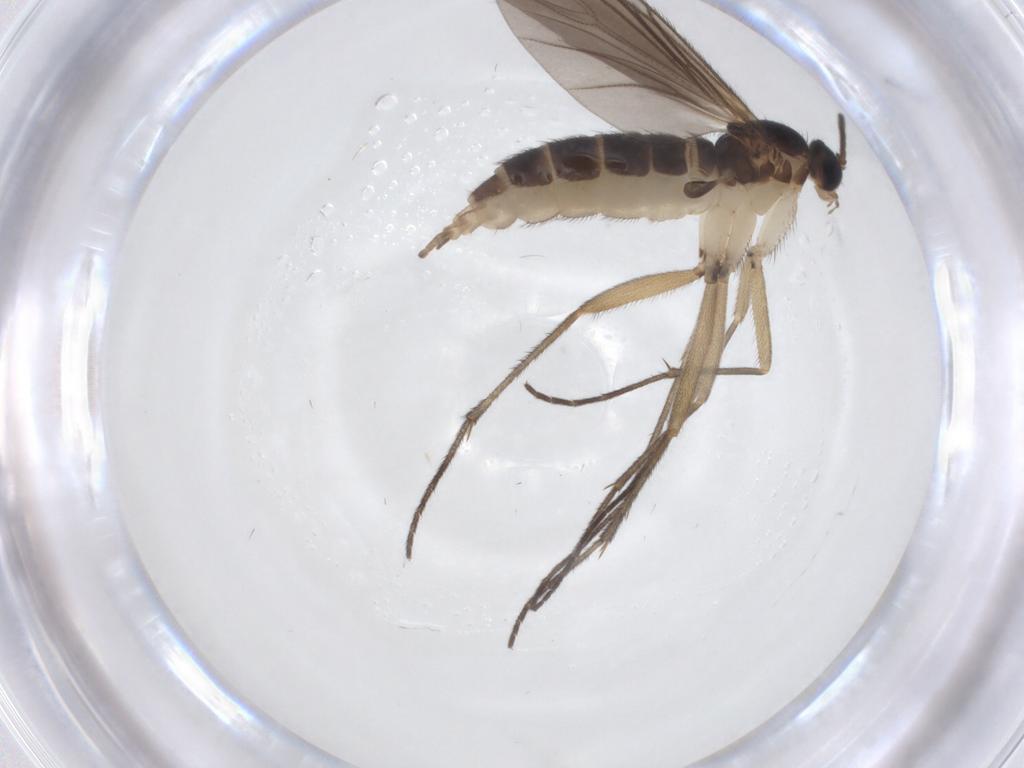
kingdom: Animalia
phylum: Arthropoda
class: Insecta
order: Diptera
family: Sciaridae
